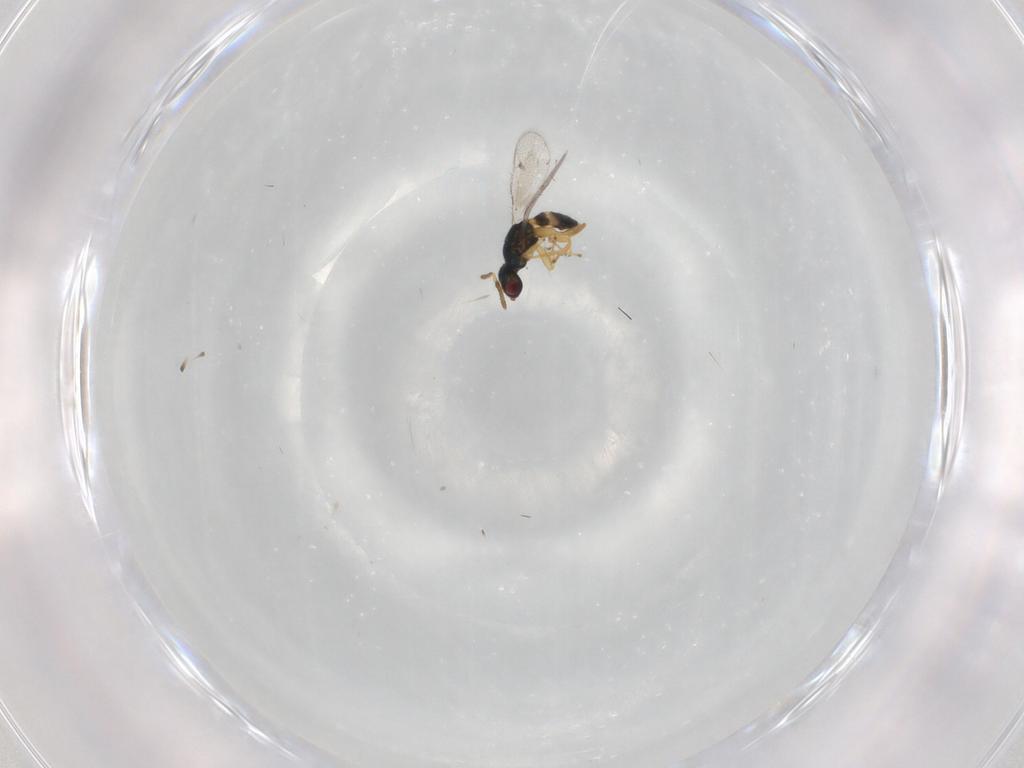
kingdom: Animalia
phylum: Arthropoda
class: Insecta
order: Hymenoptera
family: Torymidae
